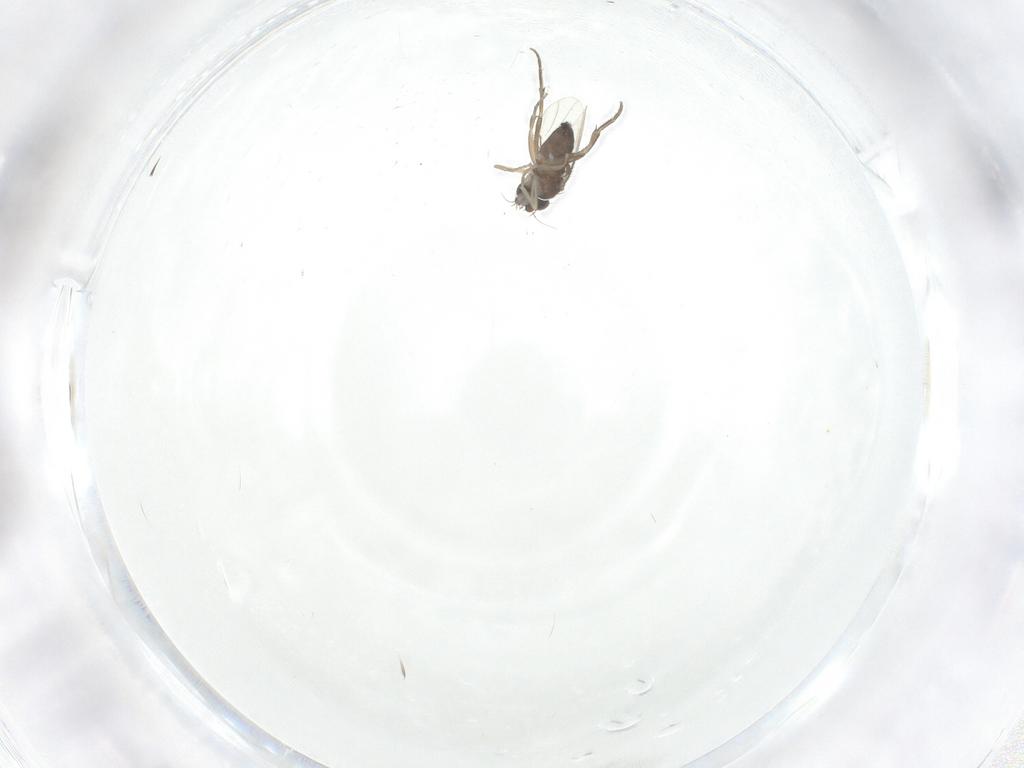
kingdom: Animalia
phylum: Arthropoda
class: Insecta
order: Diptera
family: Phoridae
